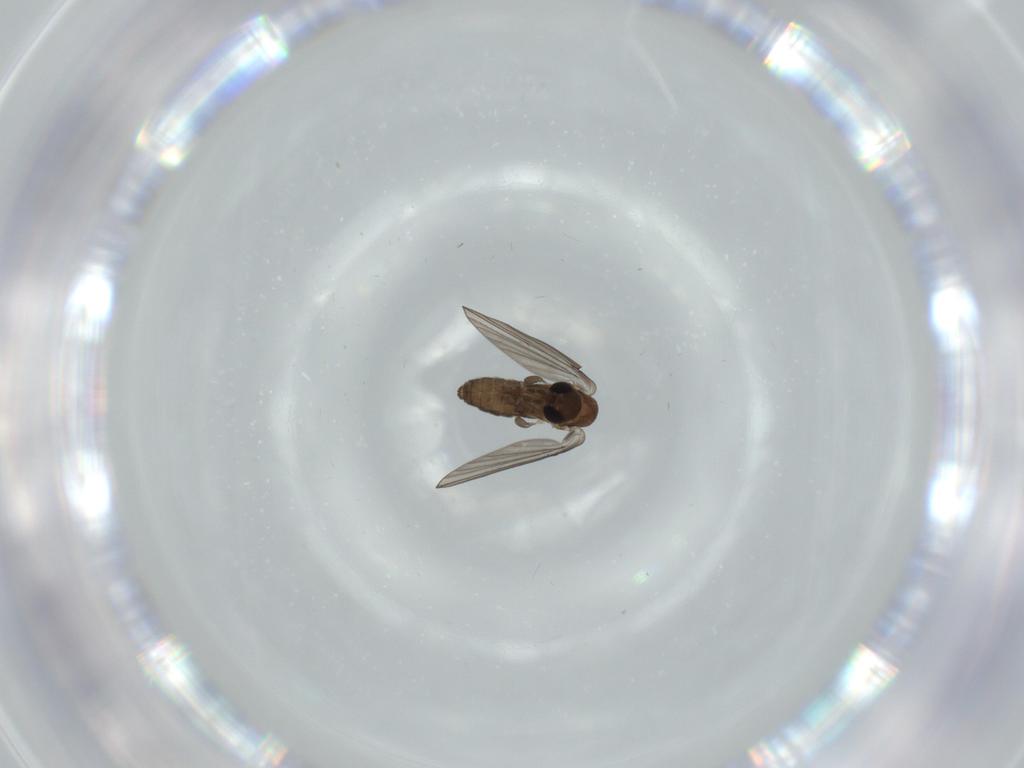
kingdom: Animalia
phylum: Arthropoda
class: Insecta
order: Diptera
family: Psychodidae
